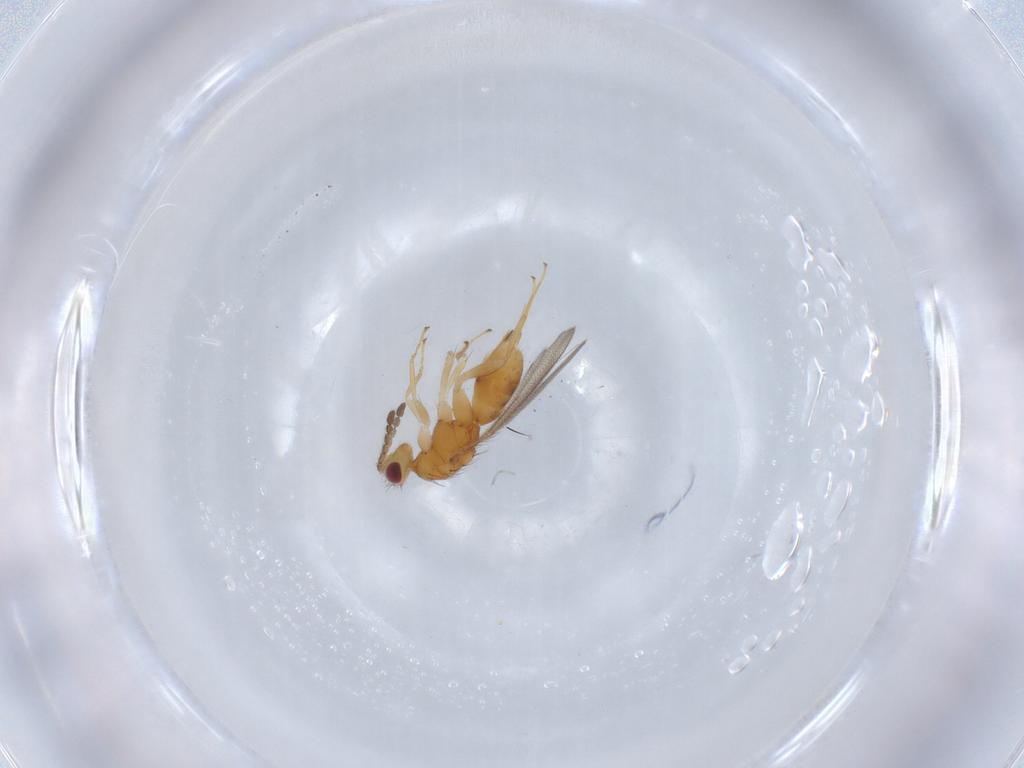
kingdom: Animalia
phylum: Arthropoda
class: Insecta
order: Hymenoptera
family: Eulophidae
